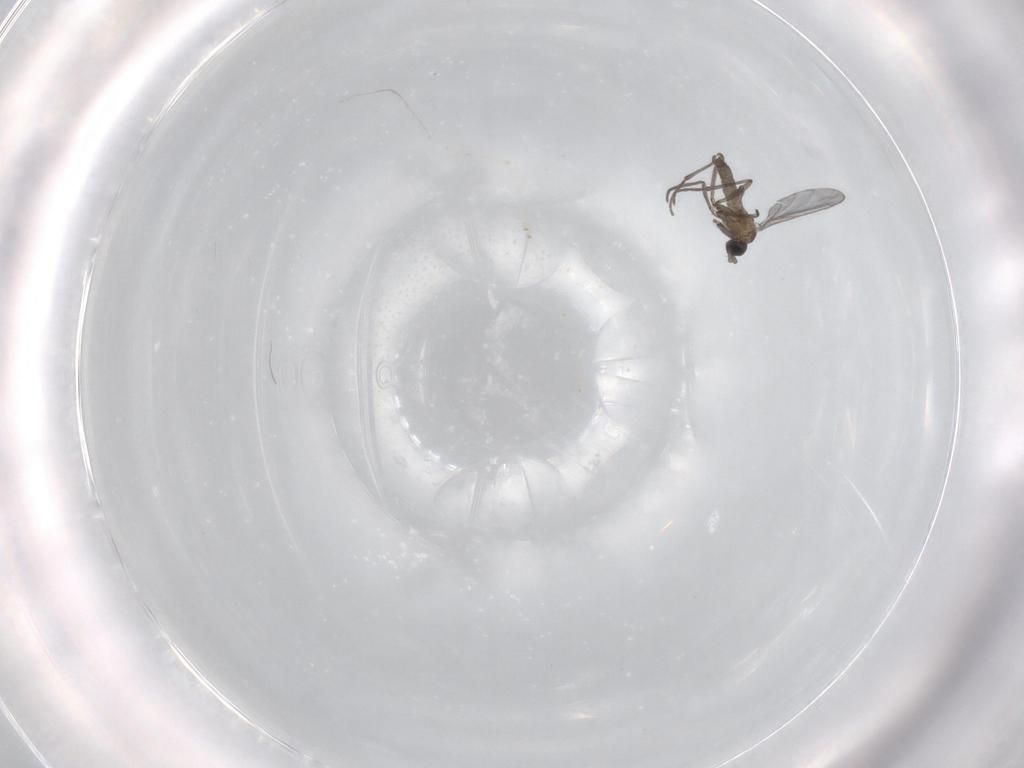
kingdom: Animalia
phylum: Arthropoda
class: Insecta
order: Diptera
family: Sciaridae
